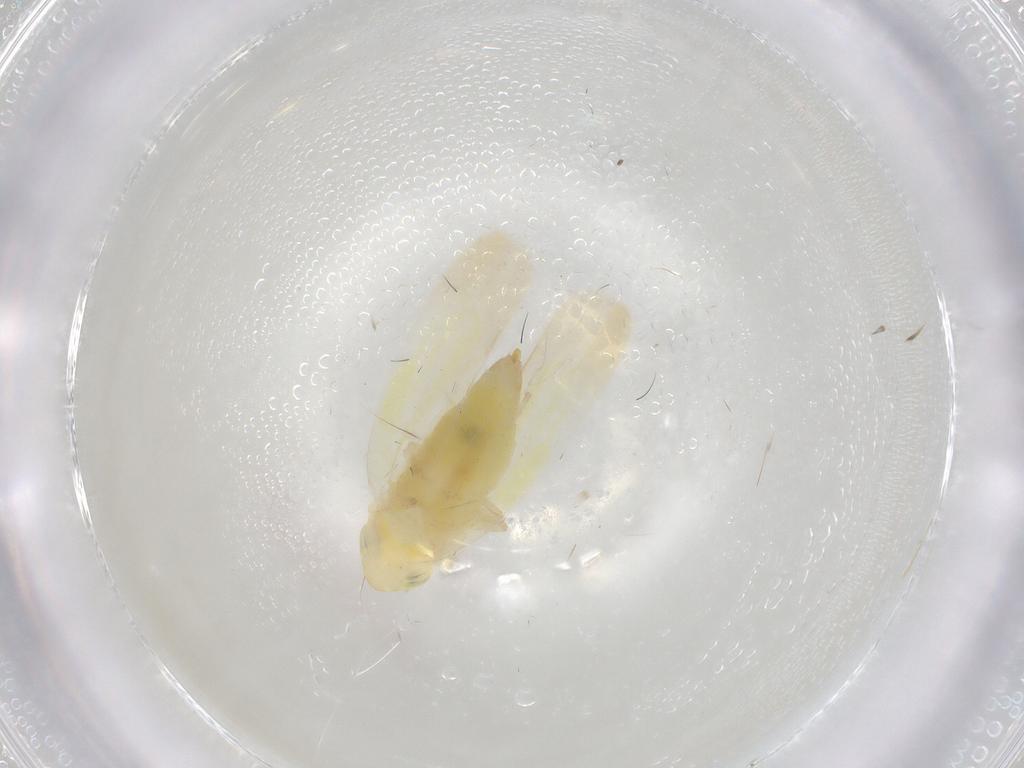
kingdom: Animalia
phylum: Arthropoda
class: Insecta
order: Hemiptera
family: Cicadellidae
